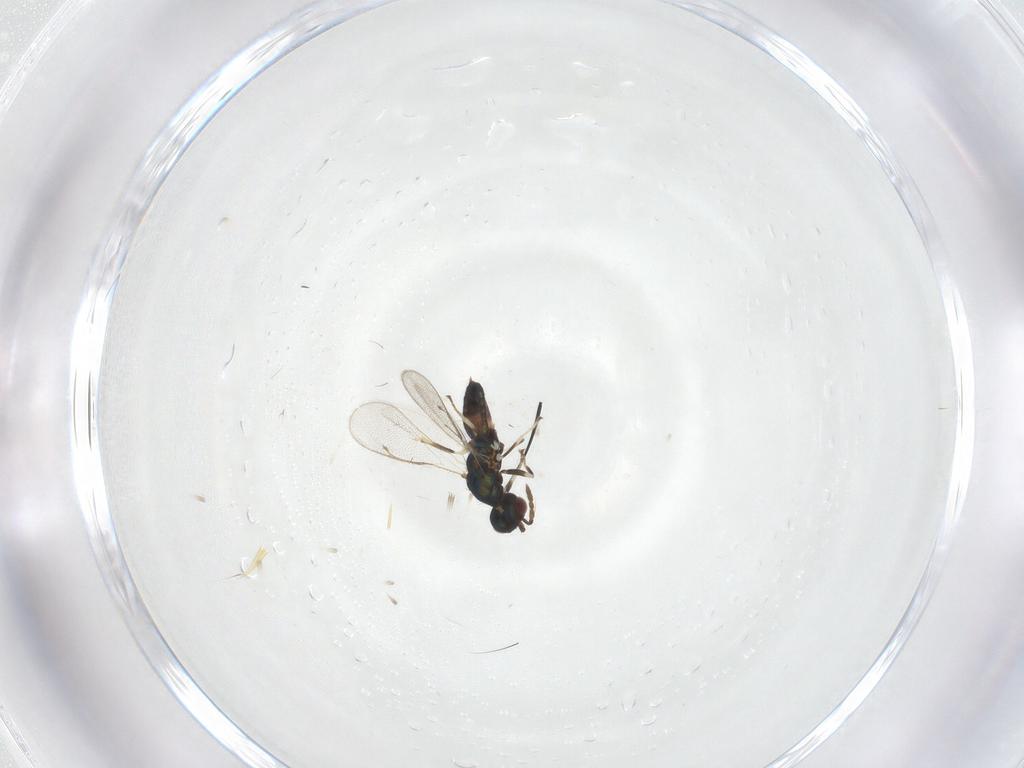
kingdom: Animalia
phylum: Arthropoda
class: Insecta
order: Hymenoptera
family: Eulophidae
